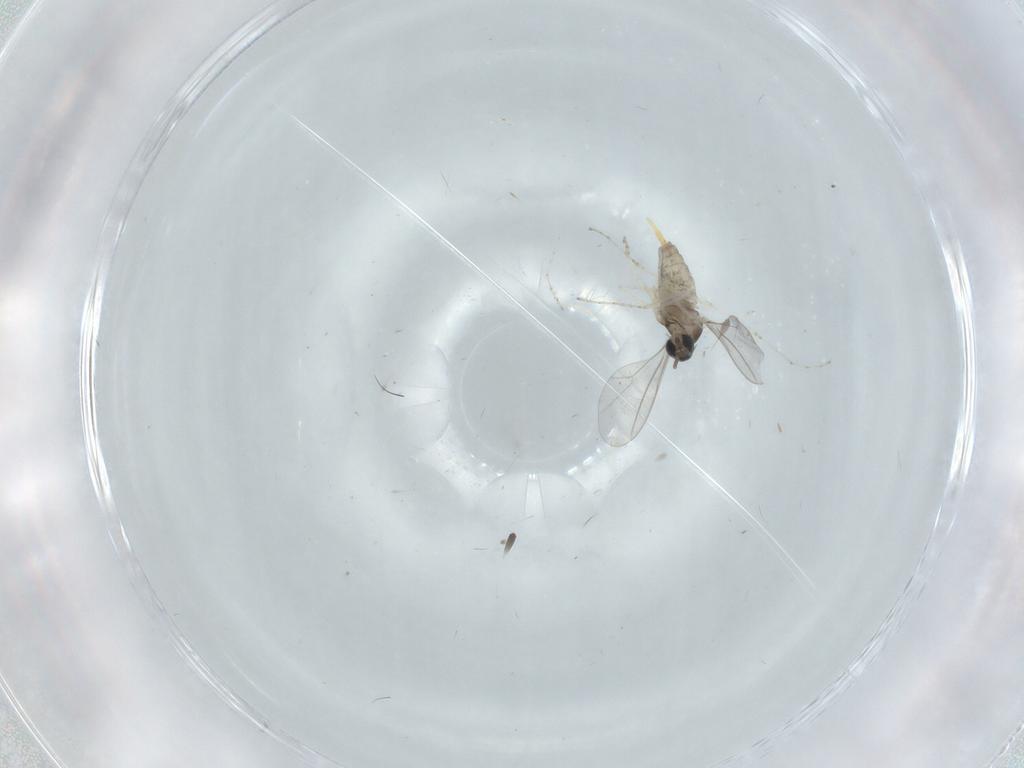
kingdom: Animalia
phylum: Arthropoda
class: Insecta
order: Diptera
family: Cecidomyiidae
